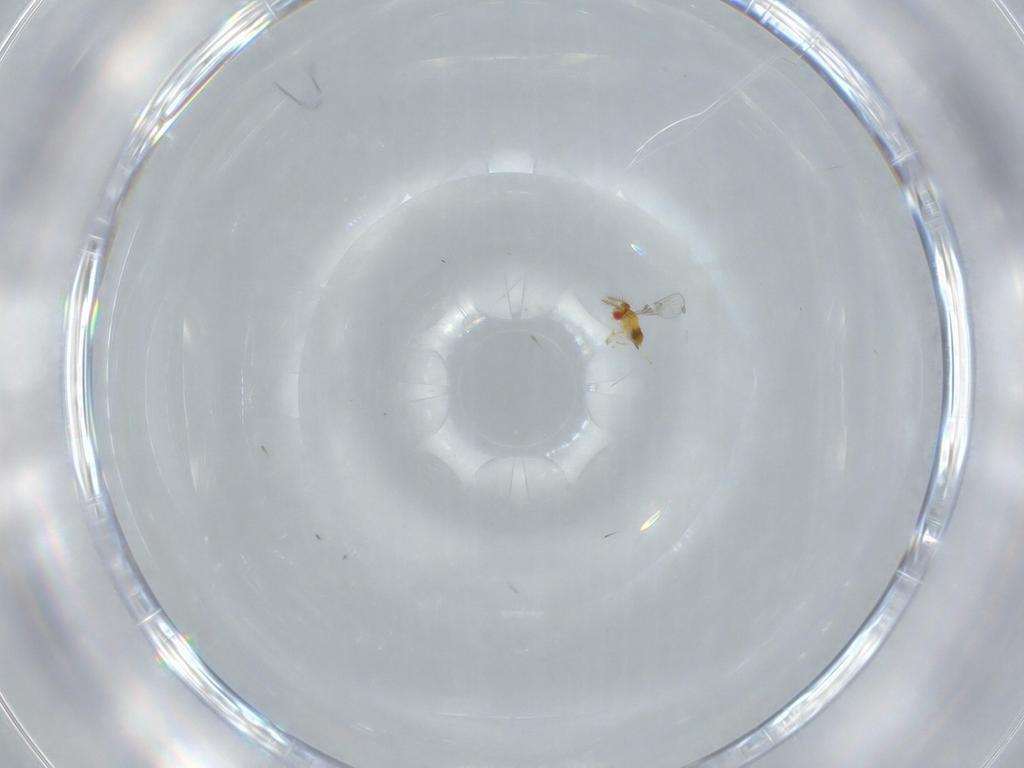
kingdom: Animalia
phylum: Arthropoda
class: Insecta
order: Hymenoptera
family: Trichogrammatidae
